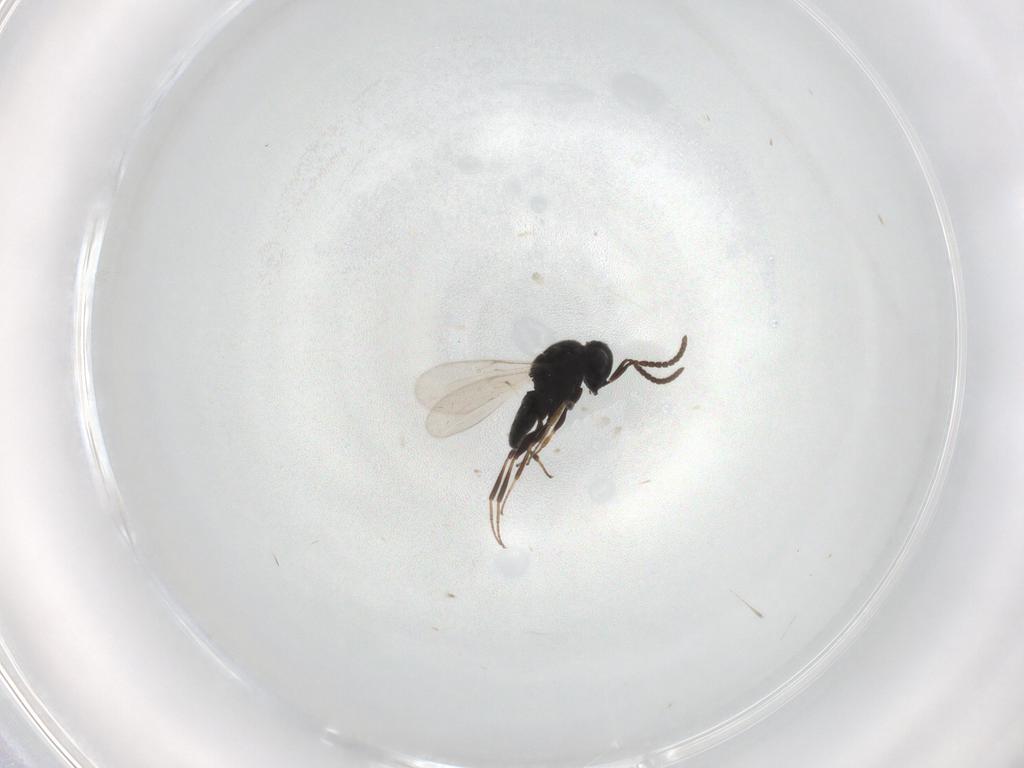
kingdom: Animalia
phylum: Arthropoda
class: Insecta
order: Hymenoptera
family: Scelionidae
